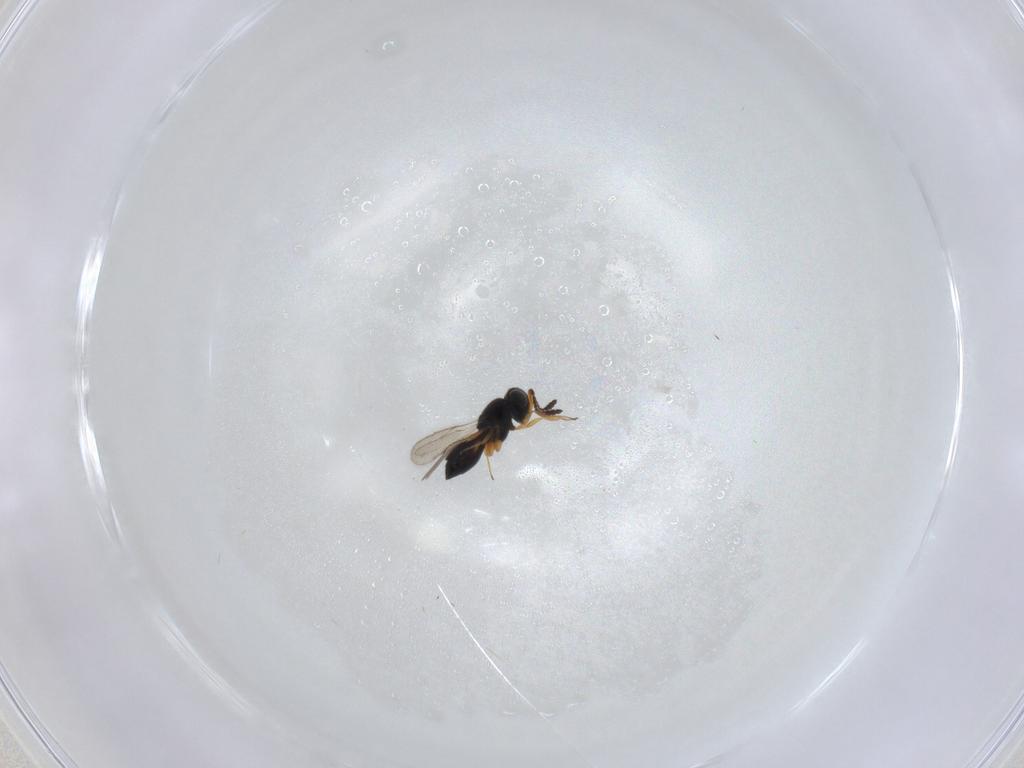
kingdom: Animalia
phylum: Arthropoda
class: Insecta
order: Hymenoptera
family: Scelionidae
